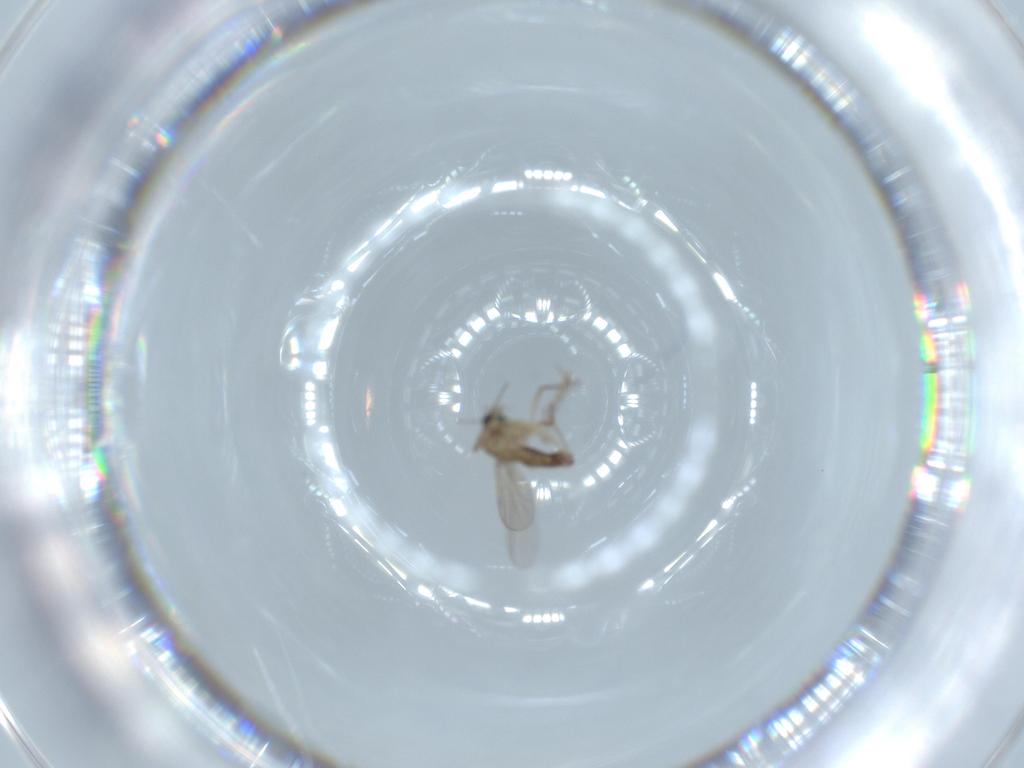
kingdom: Animalia
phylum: Arthropoda
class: Insecta
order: Diptera
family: Chironomidae
